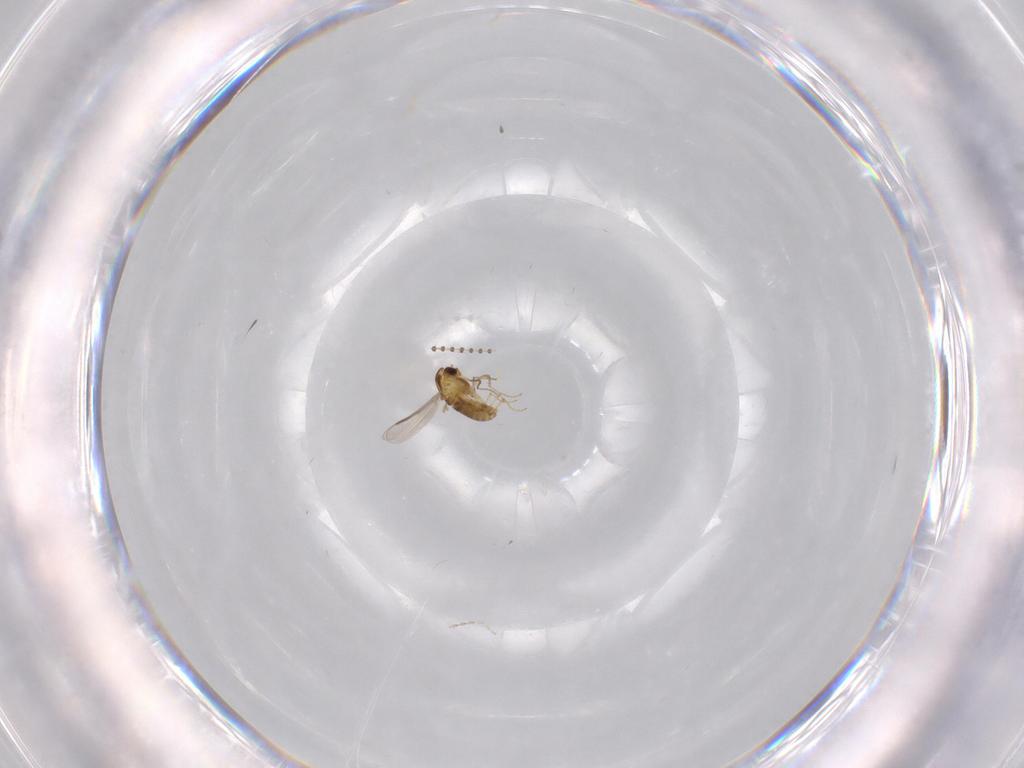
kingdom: Animalia
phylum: Arthropoda
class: Insecta
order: Diptera
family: Chironomidae
